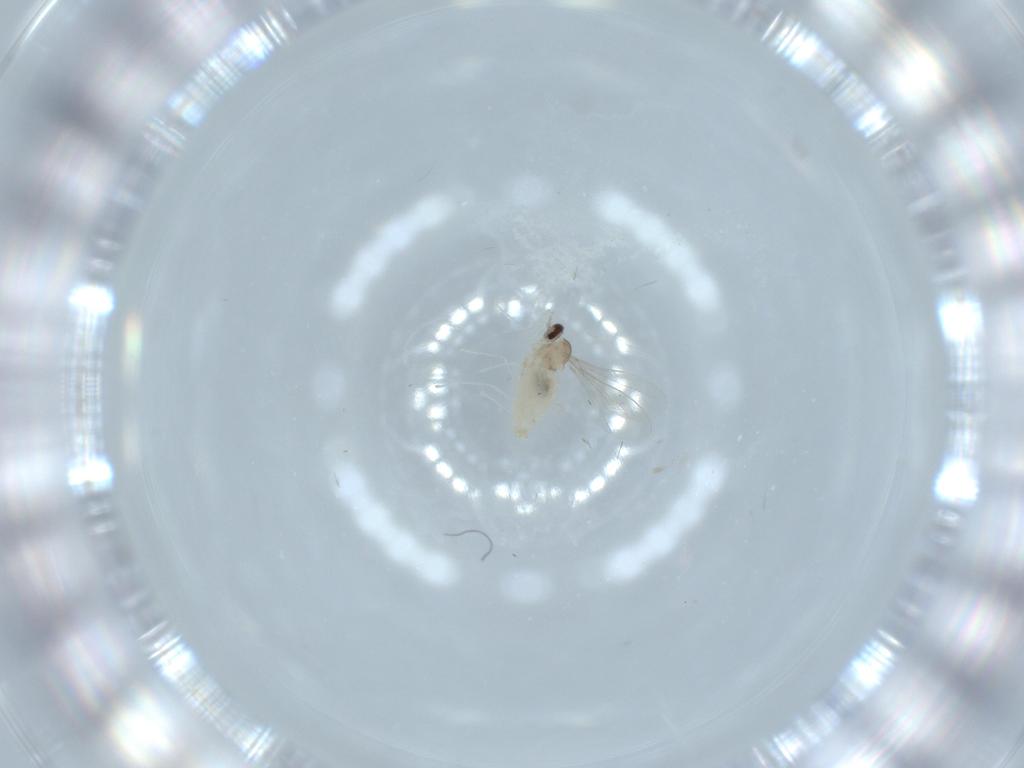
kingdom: Animalia
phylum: Arthropoda
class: Insecta
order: Diptera
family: Cecidomyiidae
